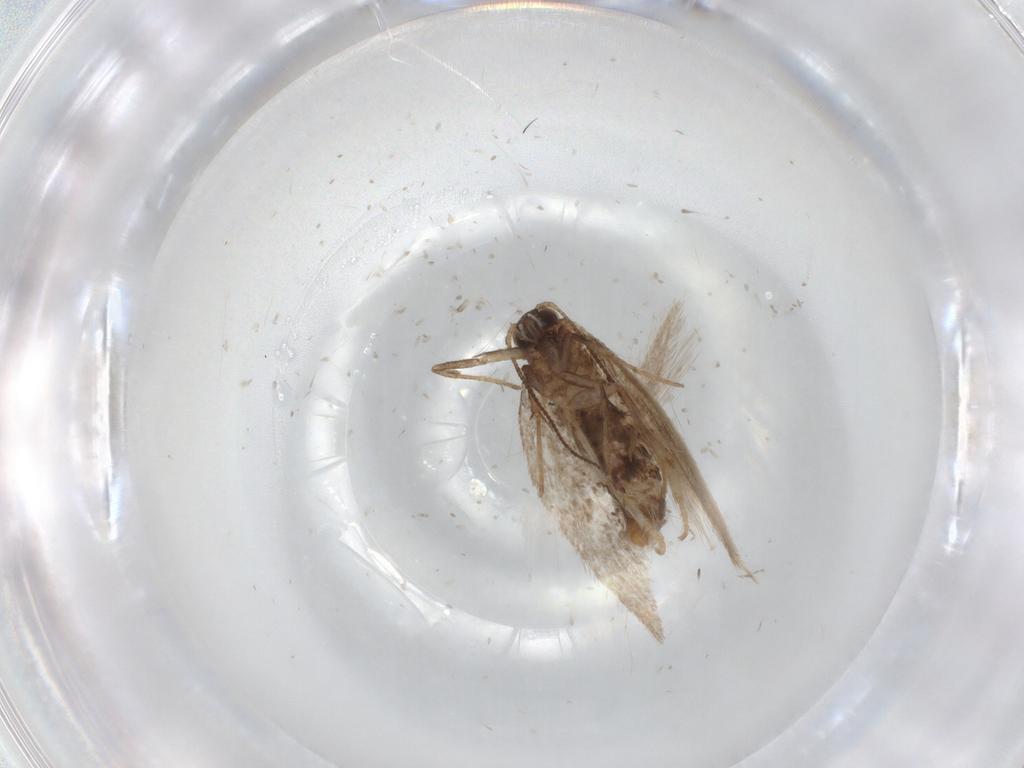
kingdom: Animalia
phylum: Arthropoda
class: Insecta
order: Lepidoptera
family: Nepticulidae
